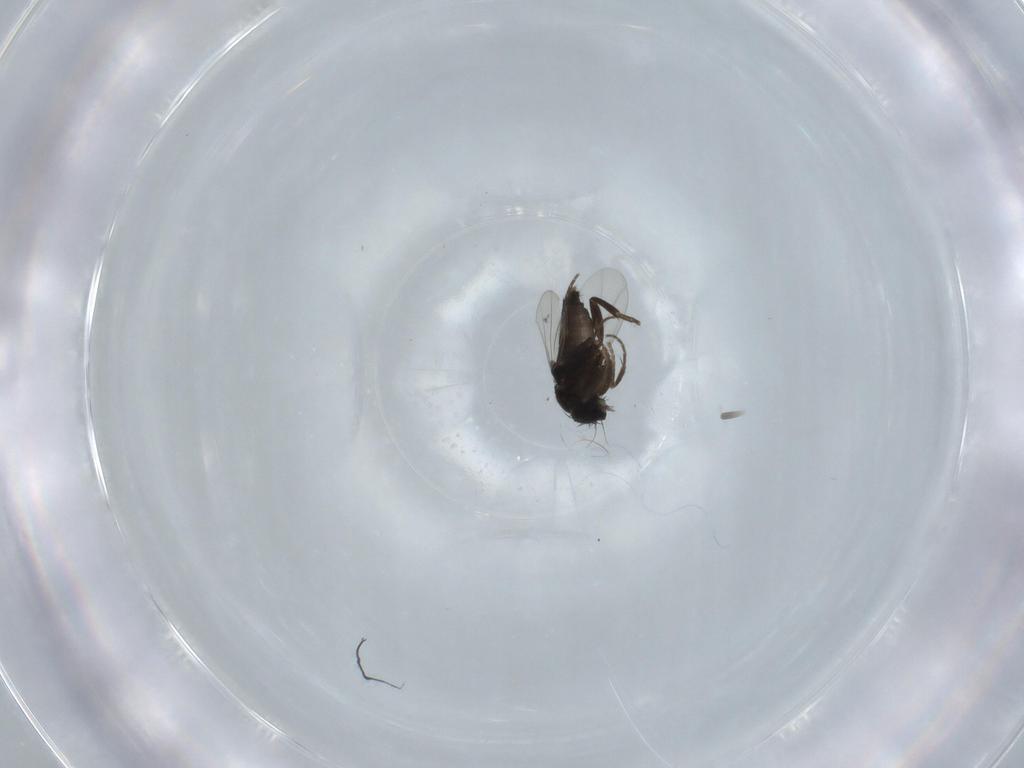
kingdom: Animalia
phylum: Arthropoda
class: Insecta
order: Diptera
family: Phoridae
